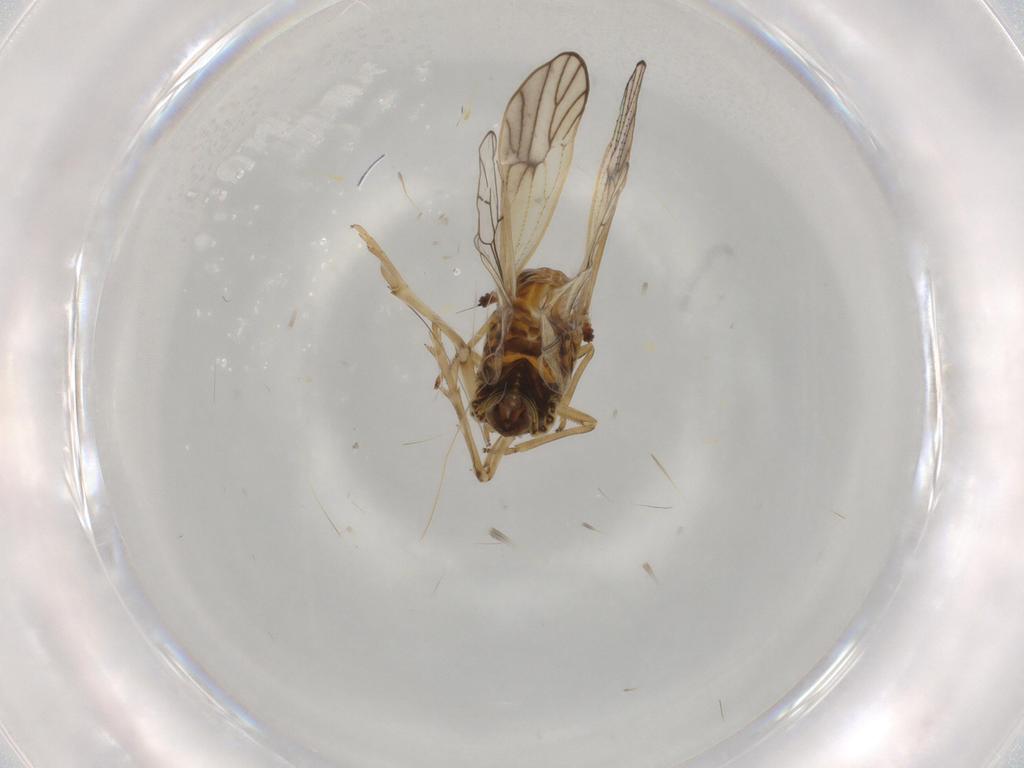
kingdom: Animalia
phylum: Arthropoda
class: Insecta
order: Hemiptera
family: Delphacidae
